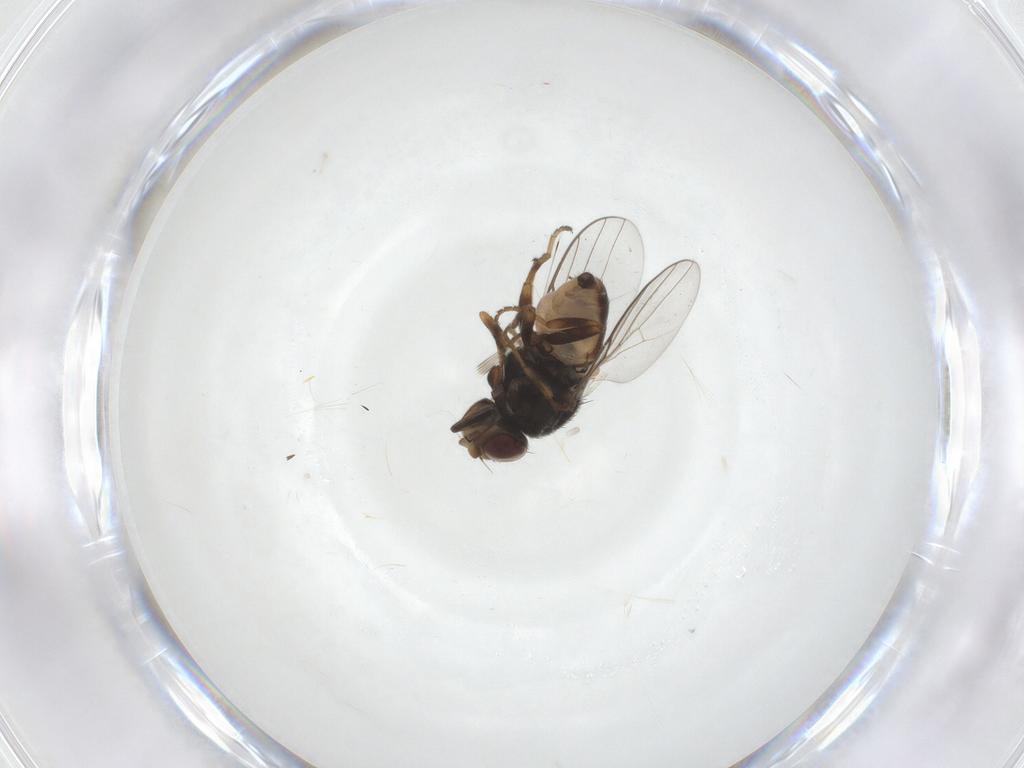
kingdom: Animalia
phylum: Arthropoda
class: Insecta
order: Diptera
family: Chloropidae
